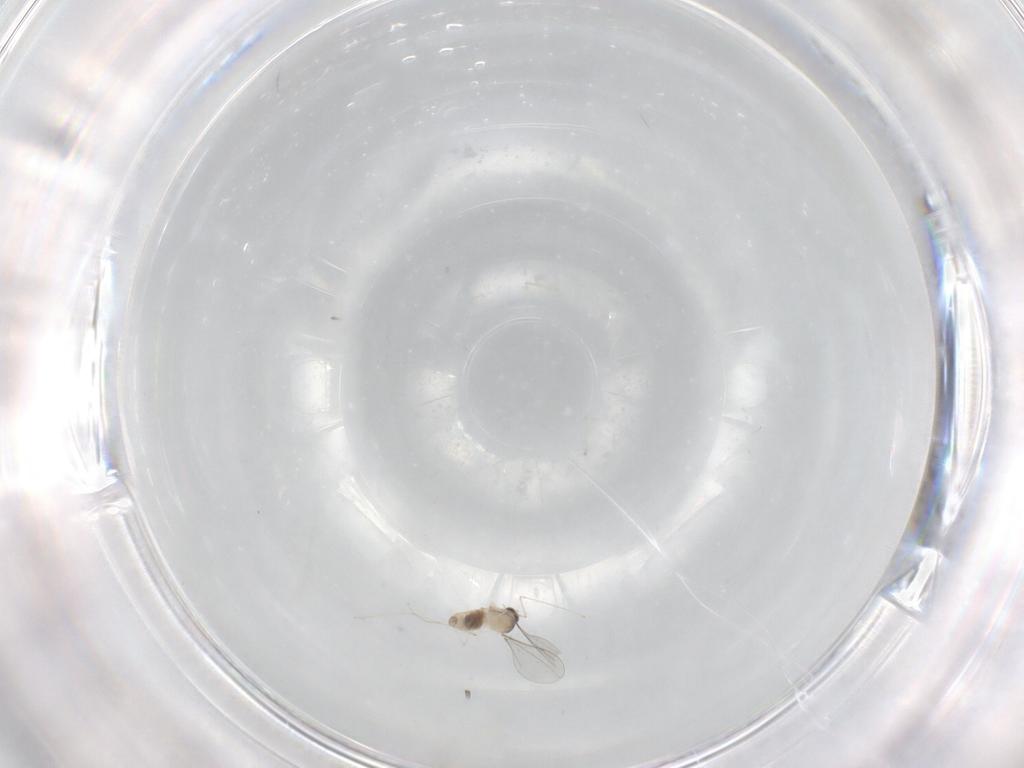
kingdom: Animalia
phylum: Arthropoda
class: Insecta
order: Diptera
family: Cecidomyiidae
